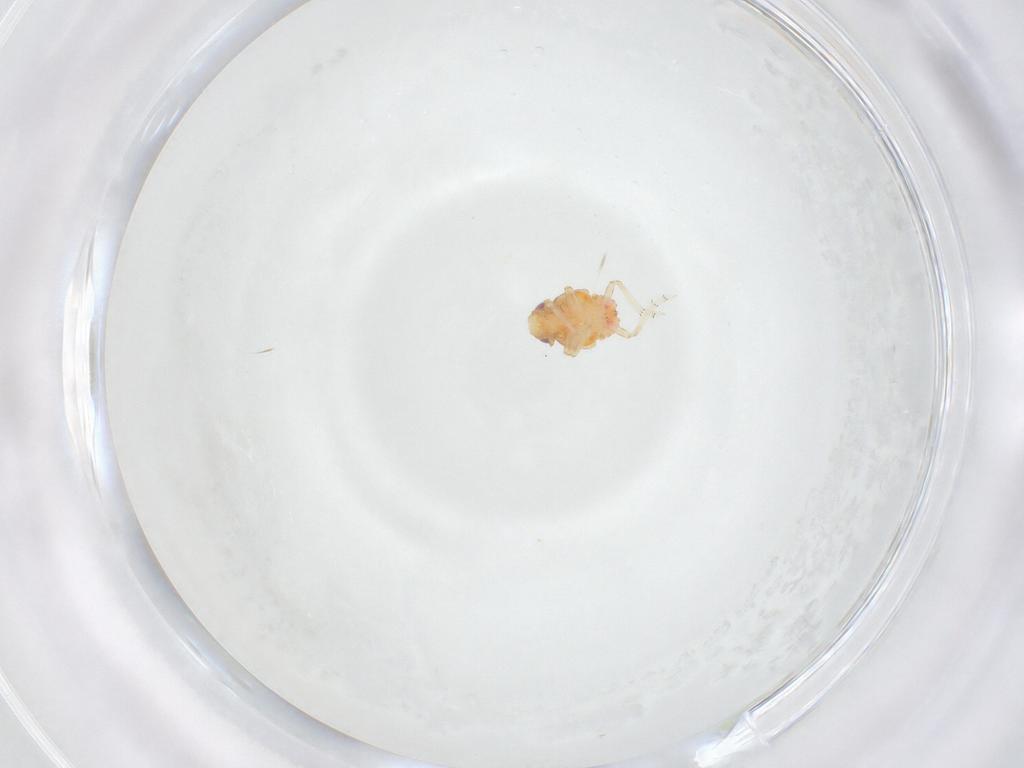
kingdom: Animalia
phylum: Arthropoda
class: Insecta
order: Hemiptera
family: Issidae
